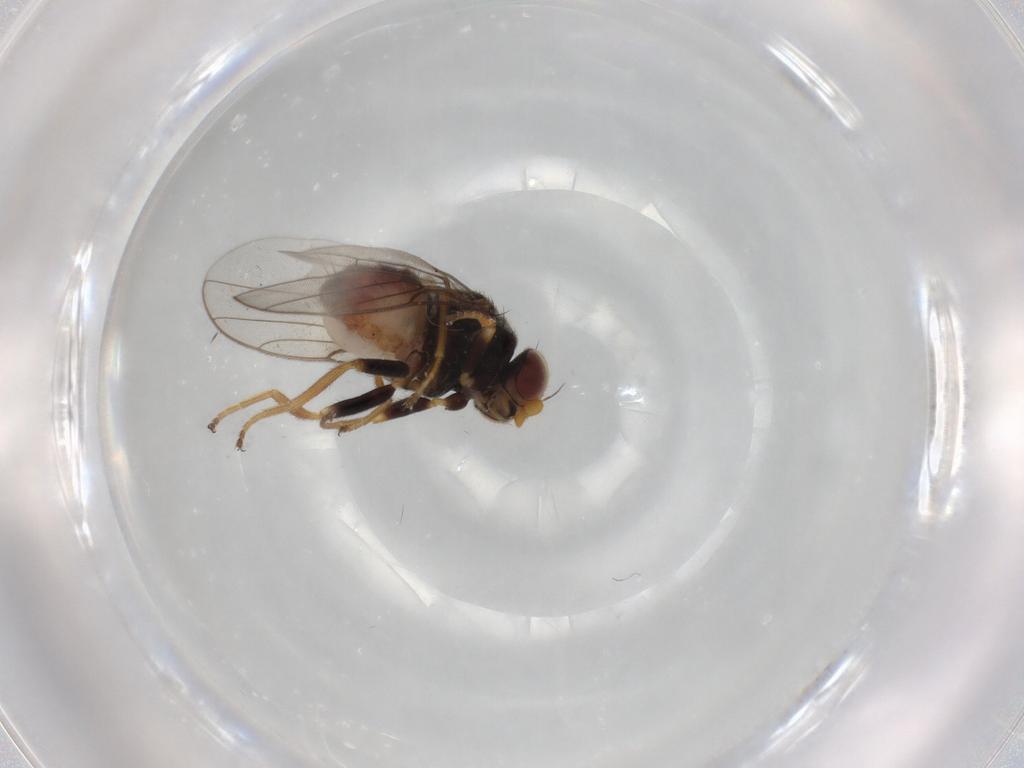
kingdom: Animalia
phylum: Arthropoda
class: Insecta
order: Diptera
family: Chloropidae
